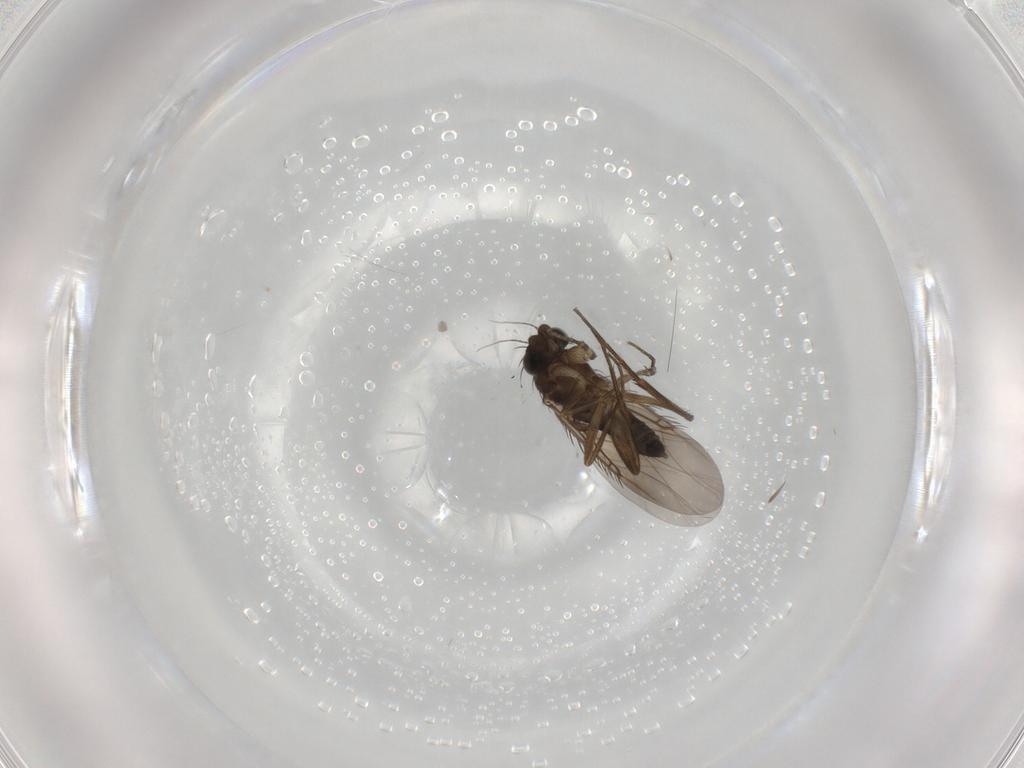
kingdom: Animalia
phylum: Arthropoda
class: Insecta
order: Diptera
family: Phoridae
